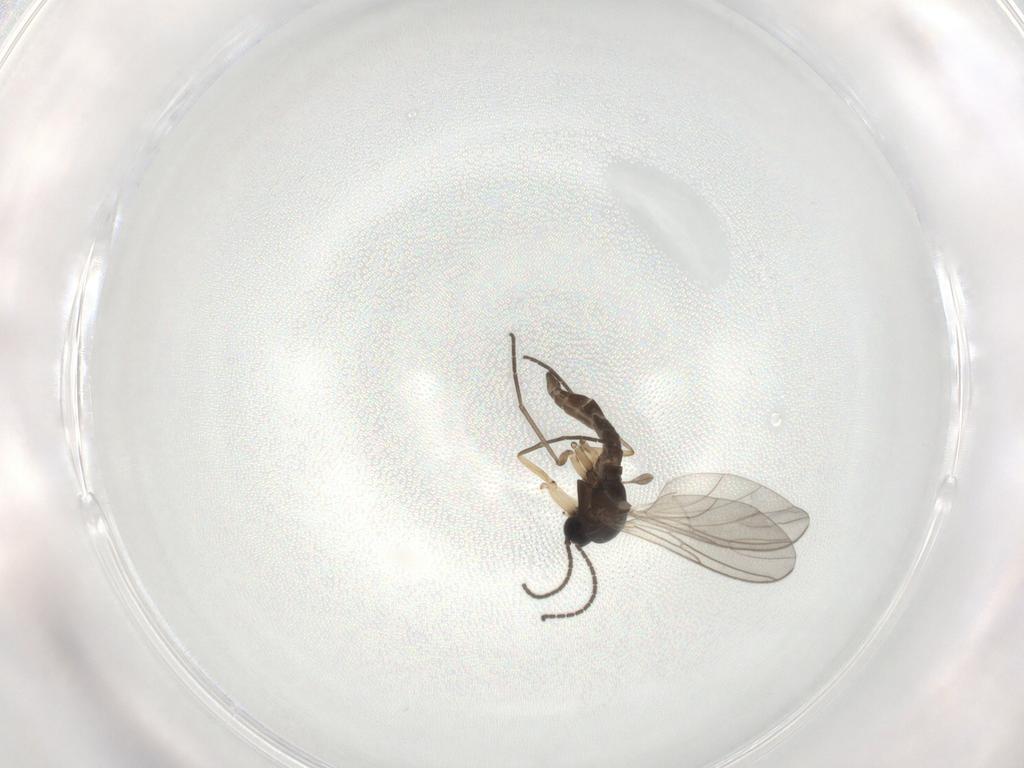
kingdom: Animalia
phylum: Arthropoda
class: Insecta
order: Diptera
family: Sciaridae
